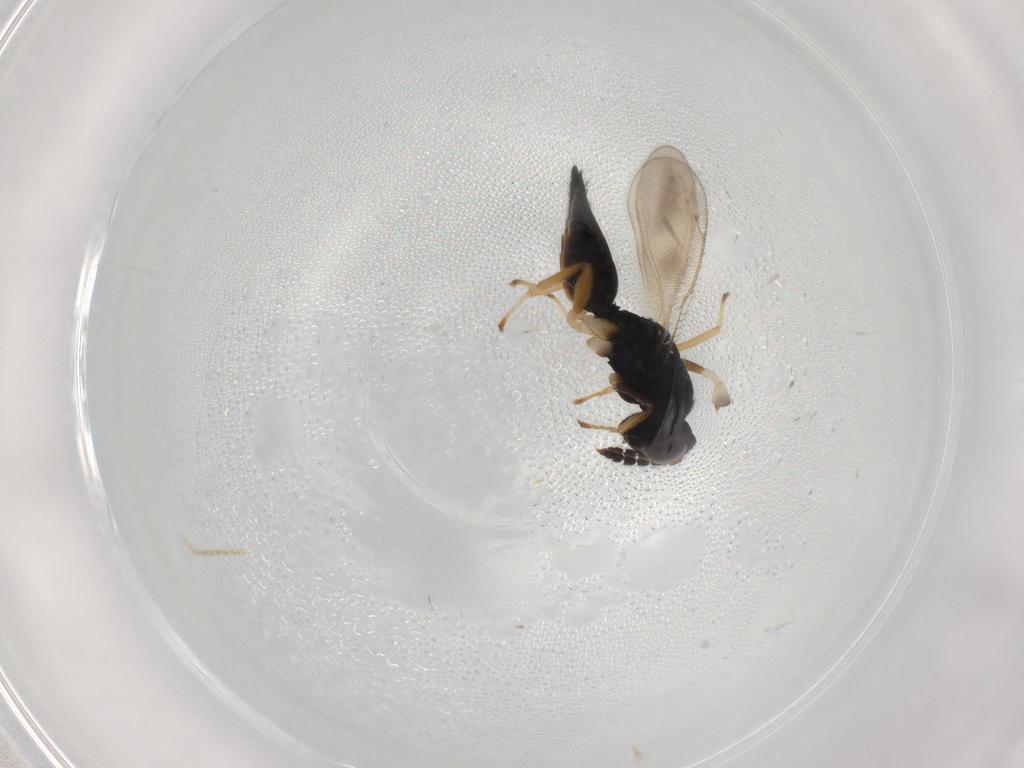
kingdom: Animalia
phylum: Arthropoda
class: Insecta
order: Hymenoptera
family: Eulophidae
